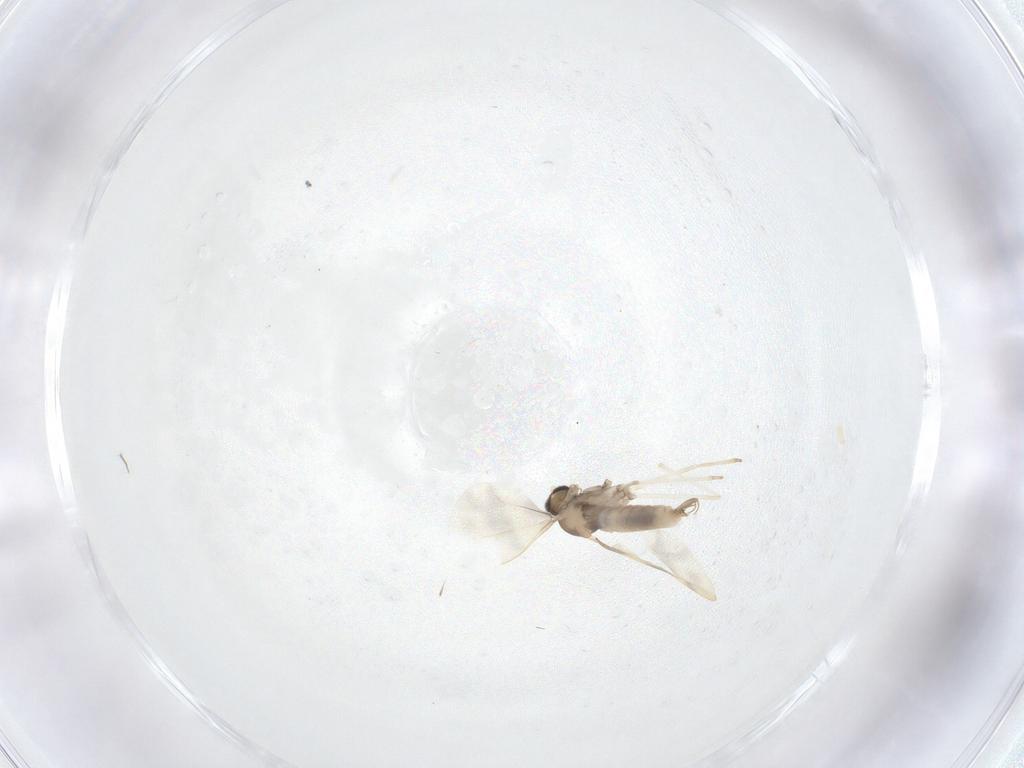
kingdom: Animalia
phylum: Arthropoda
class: Insecta
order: Diptera
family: Cecidomyiidae
